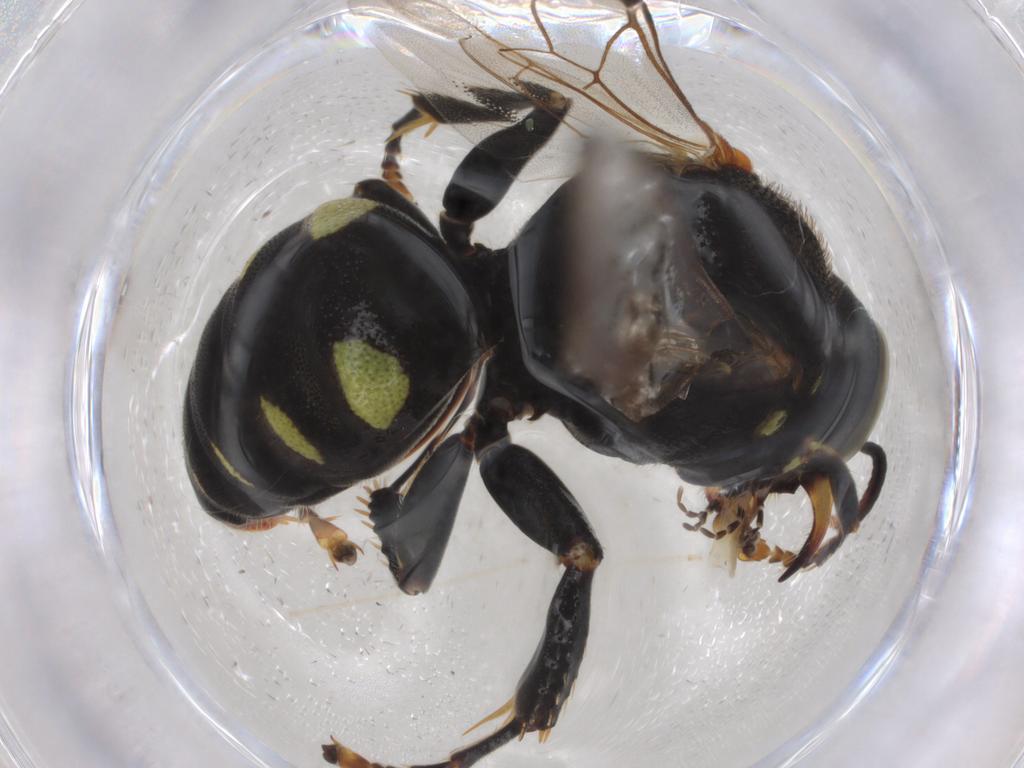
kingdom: Animalia
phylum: Arthropoda
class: Insecta
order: Hymenoptera
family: Crabronidae
